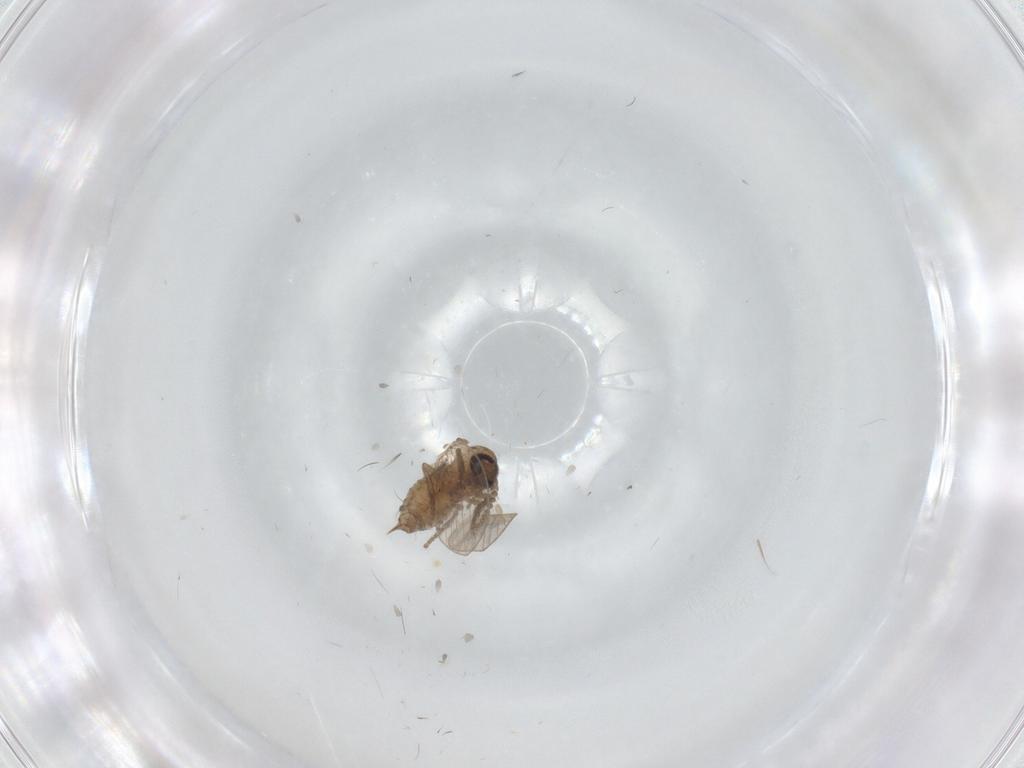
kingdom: Animalia
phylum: Arthropoda
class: Insecta
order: Diptera
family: Psychodidae
